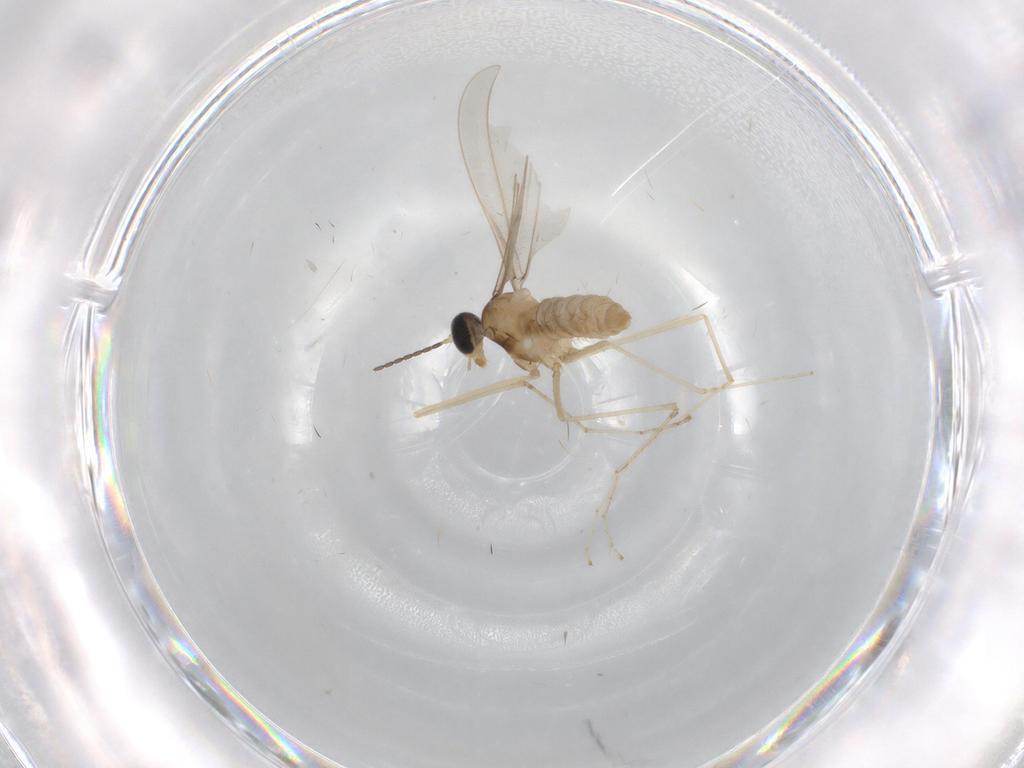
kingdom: Animalia
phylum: Arthropoda
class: Insecta
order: Diptera
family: Cecidomyiidae
